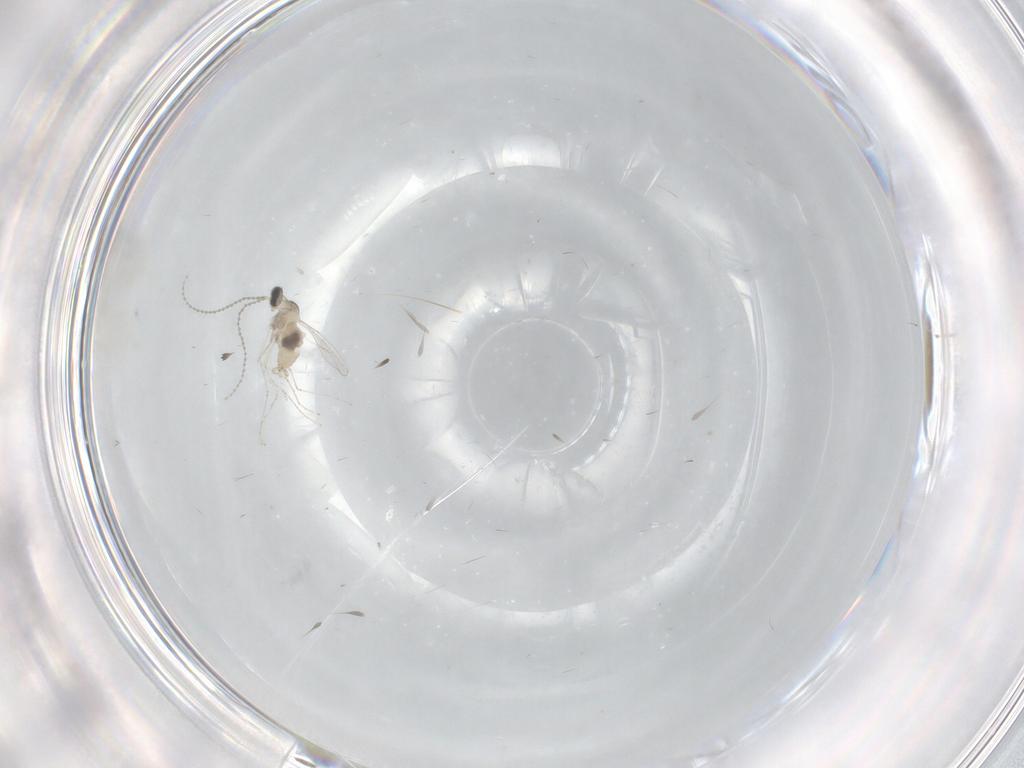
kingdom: Animalia
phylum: Arthropoda
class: Insecta
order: Diptera
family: Cecidomyiidae
